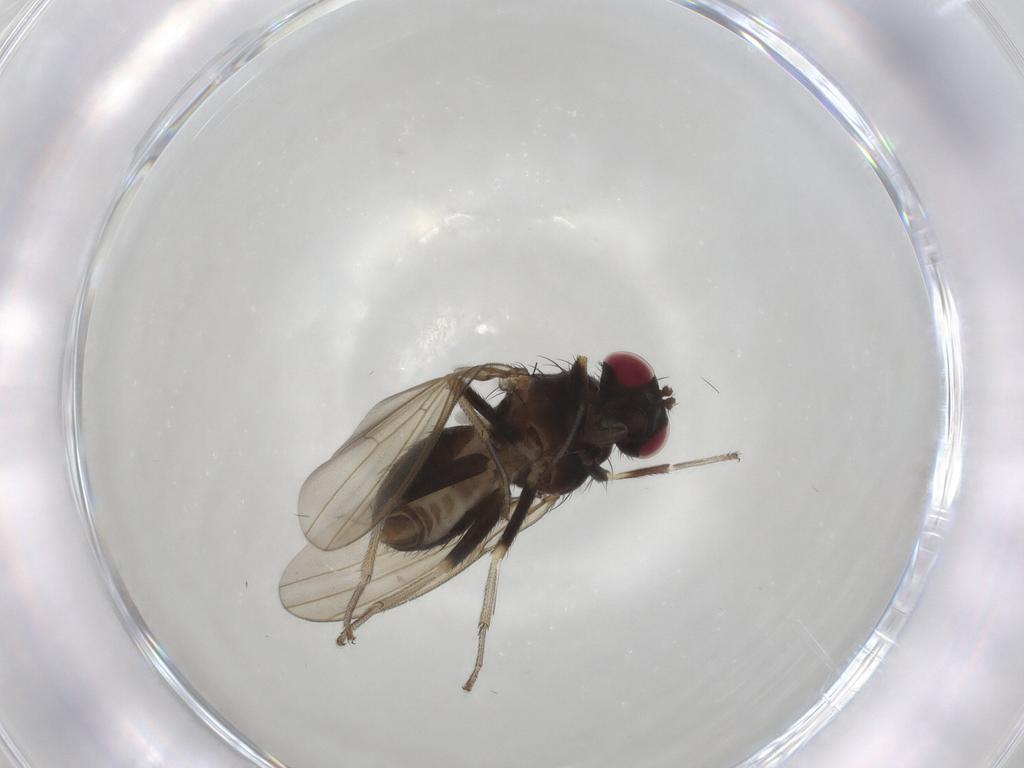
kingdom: Animalia
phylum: Arthropoda
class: Insecta
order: Diptera
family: Lauxaniidae
